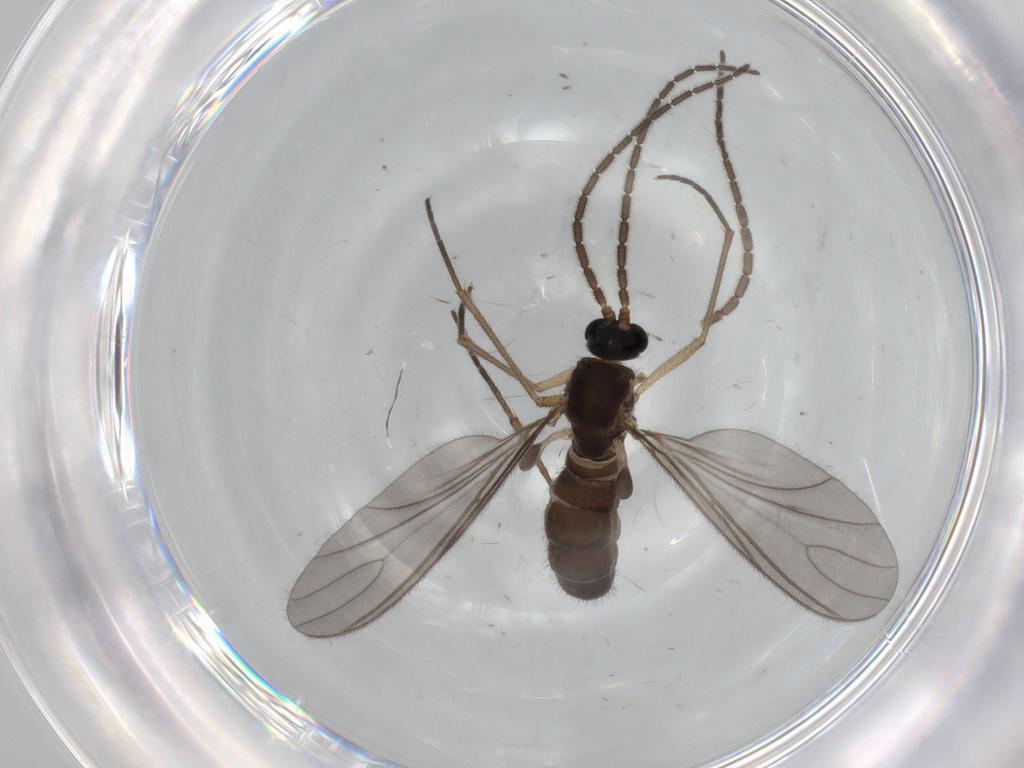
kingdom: Animalia
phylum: Arthropoda
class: Insecta
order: Diptera
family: Sciaridae
